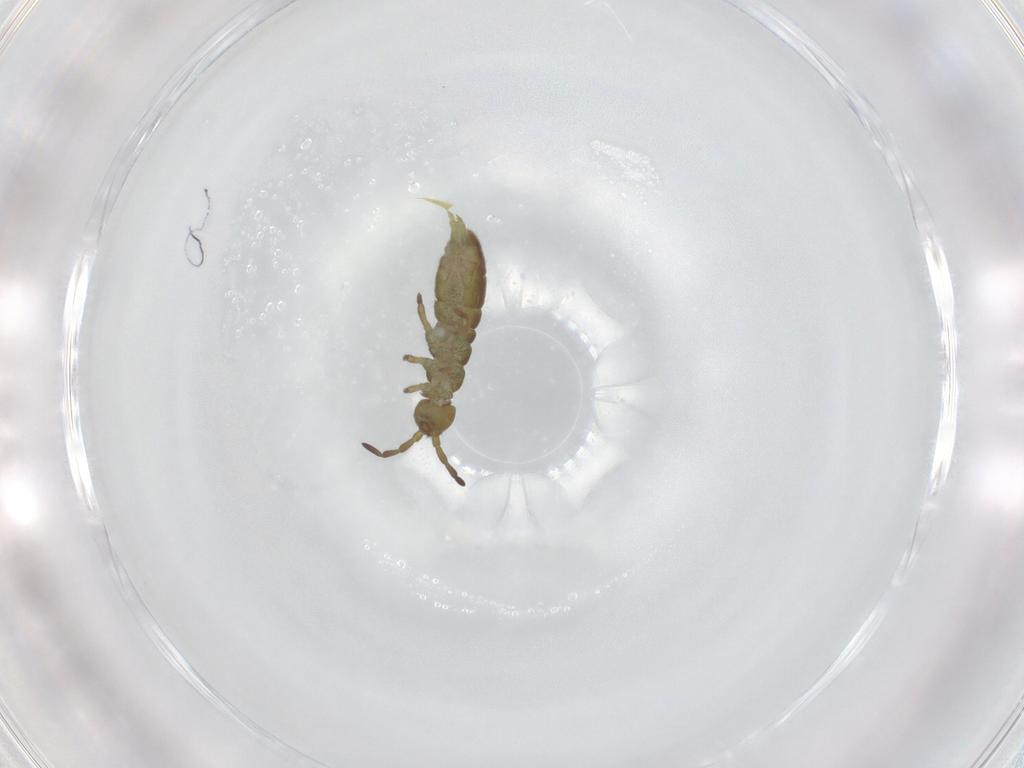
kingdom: Animalia
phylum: Arthropoda
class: Collembola
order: Entomobryomorpha
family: Isotomidae
